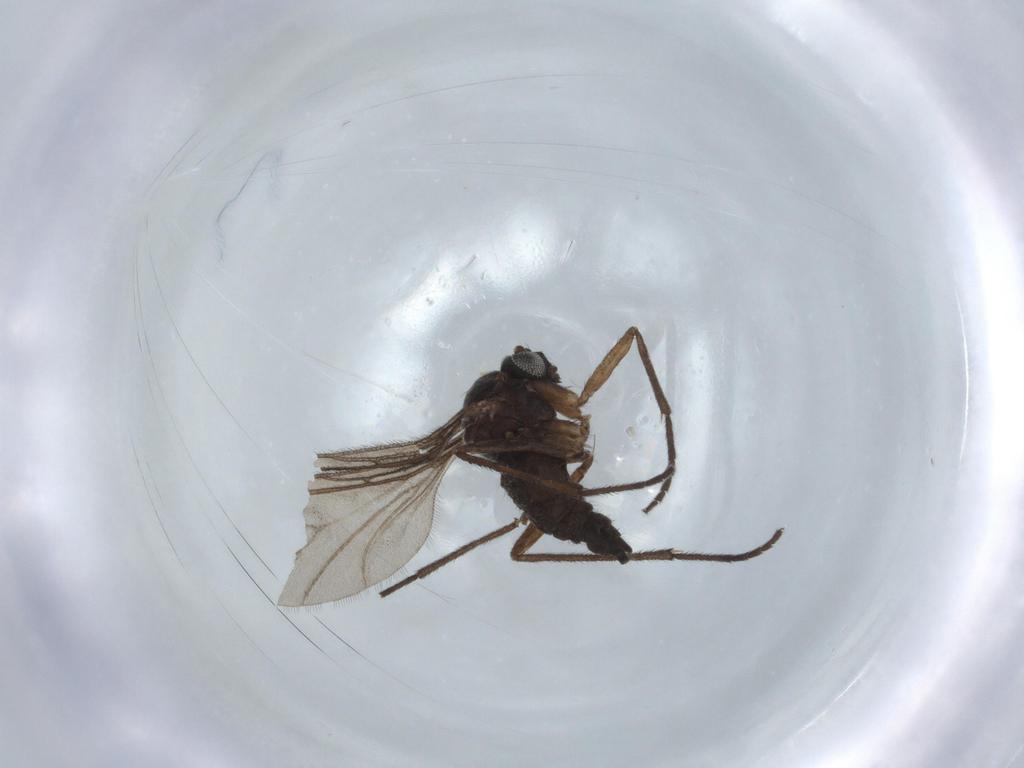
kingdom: Animalia
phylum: Arthropoda
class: Insecta
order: Diptera
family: Sciaridae
